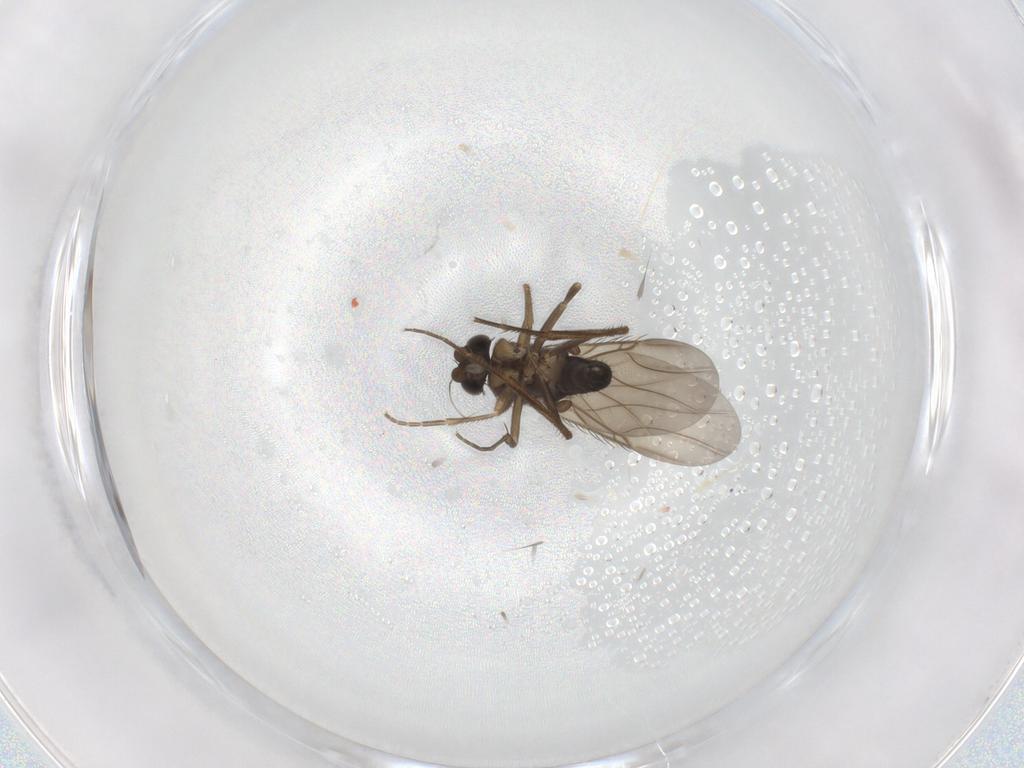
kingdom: Animalia
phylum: Arthropoda
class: Insecta
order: Diptera
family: Phoridae
